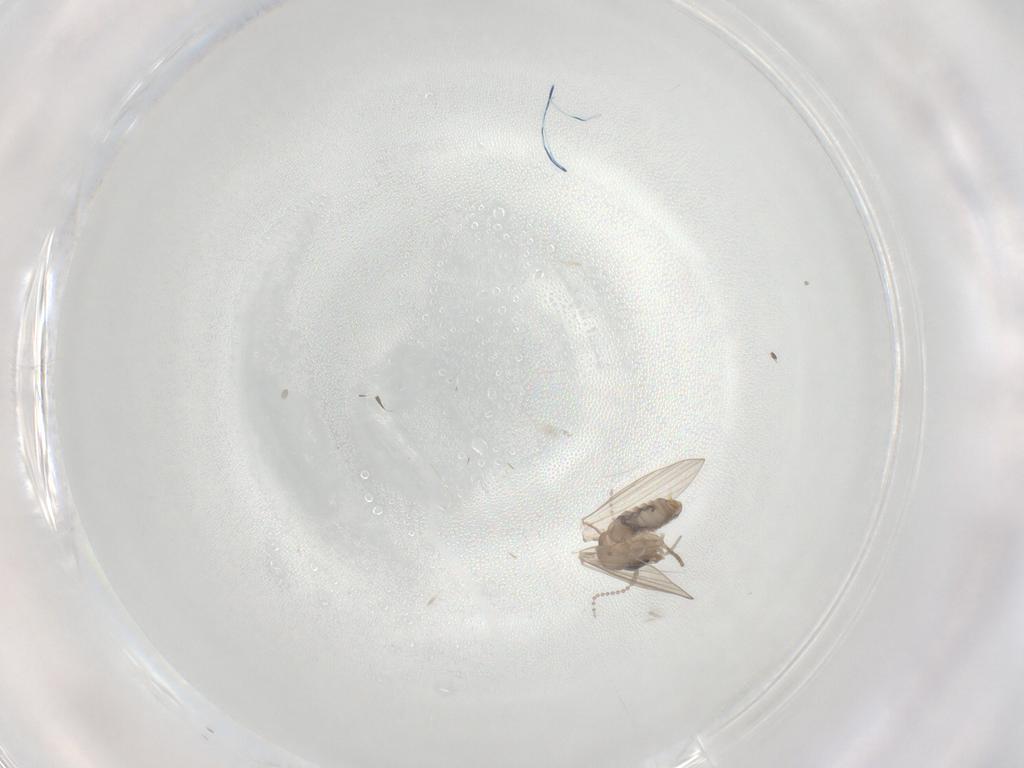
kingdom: Animalia
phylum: Arthropoda
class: Insecta
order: Diptera
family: Psychodidae
